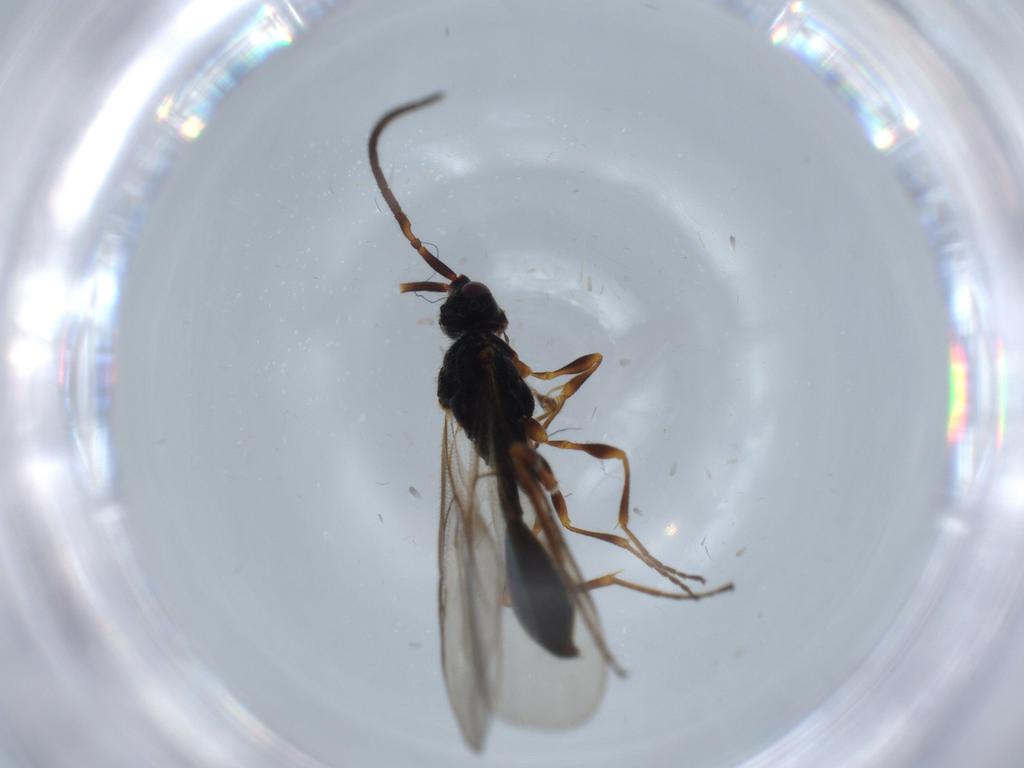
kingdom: Animalia
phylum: Arthropoda
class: Insecta
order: Hymenoptera
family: Diapriidae
